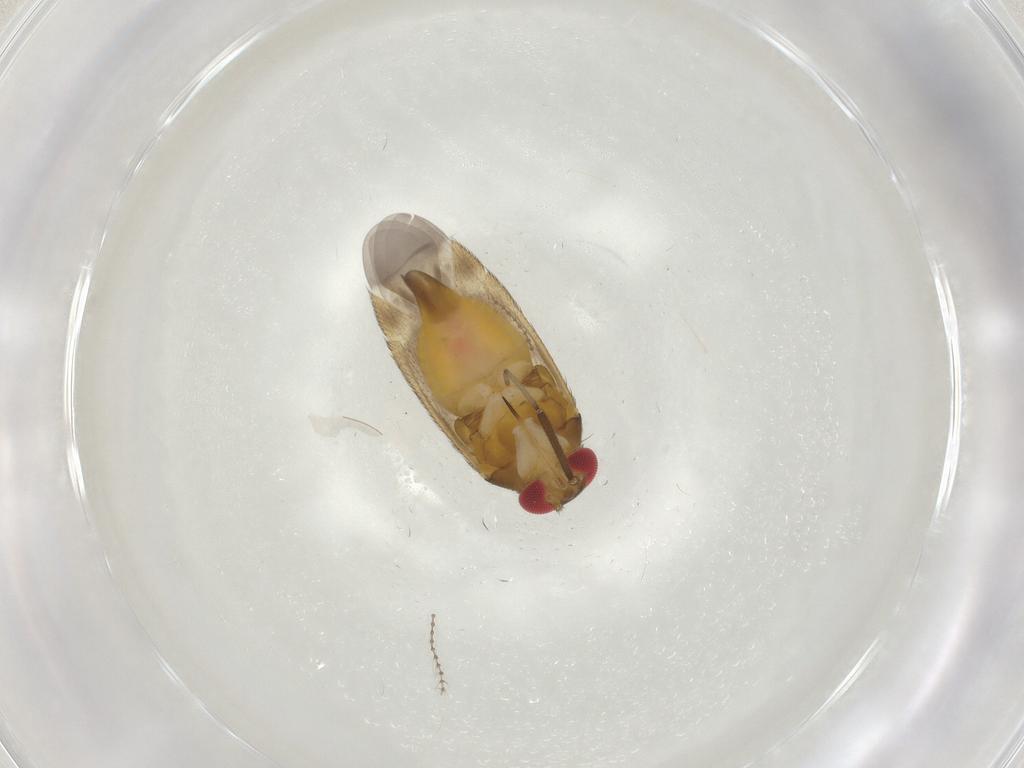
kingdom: Animalia
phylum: Arthropoda
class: Insecta
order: Hemiptera
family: Miridae
